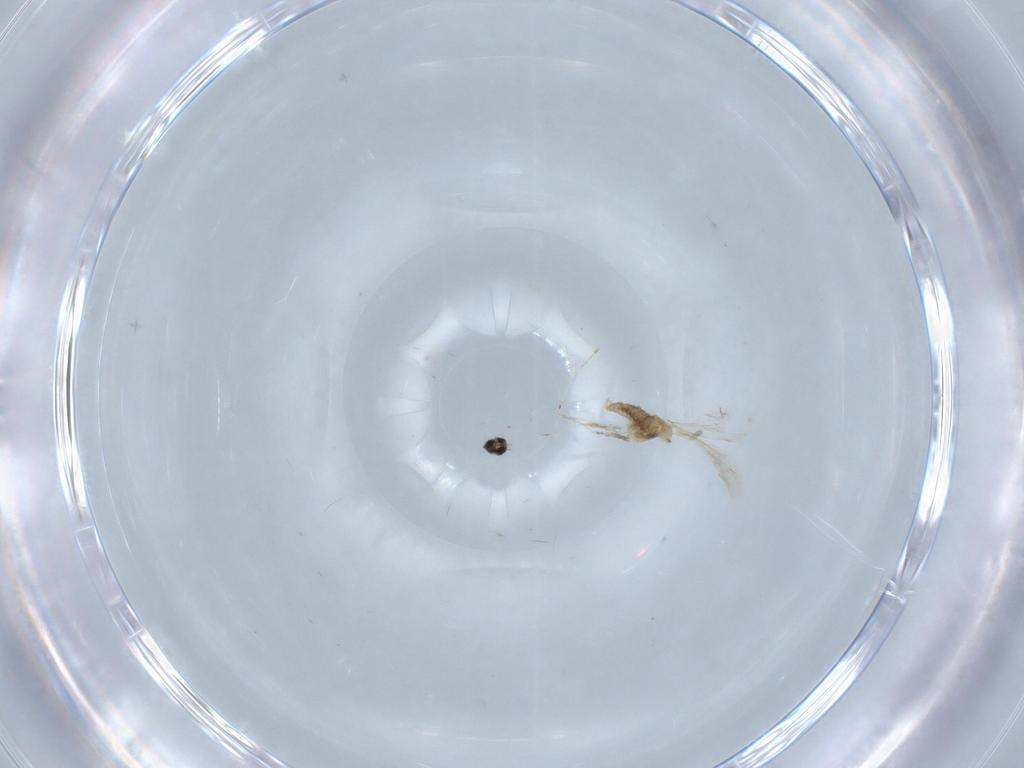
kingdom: Animalia
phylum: Arthropoda
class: Insecta
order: Diptera
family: Cecidomyiidae
